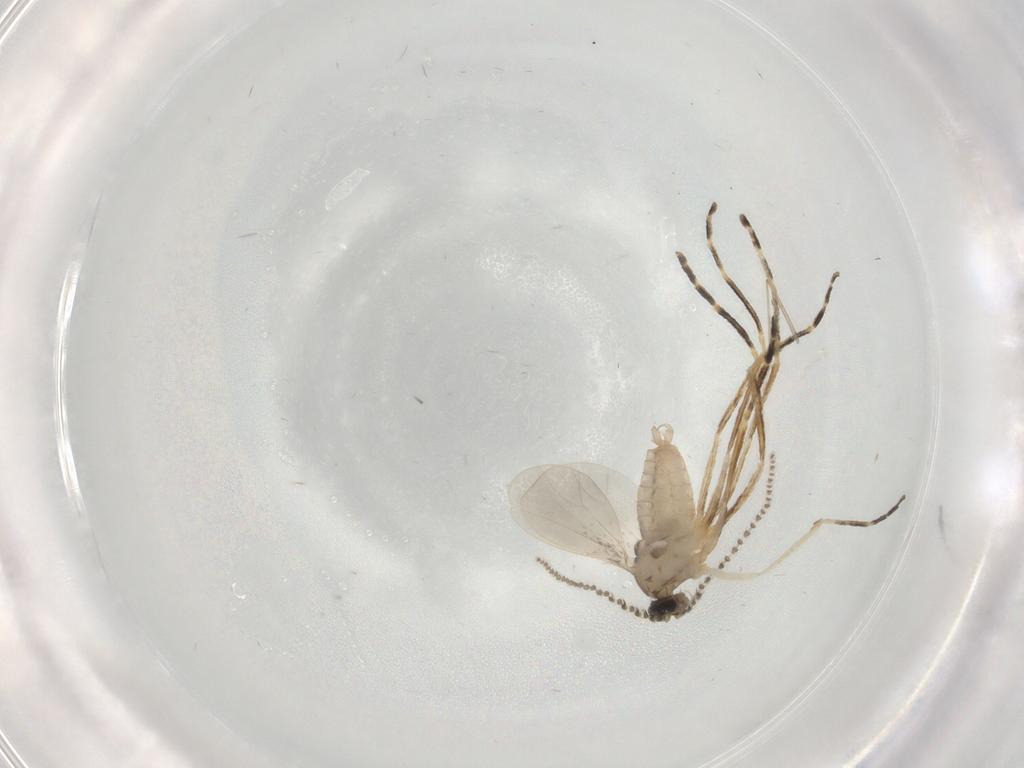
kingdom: Animalia
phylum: Arthropoda
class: Insecta
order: Diptera
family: Cecidomyiidae
